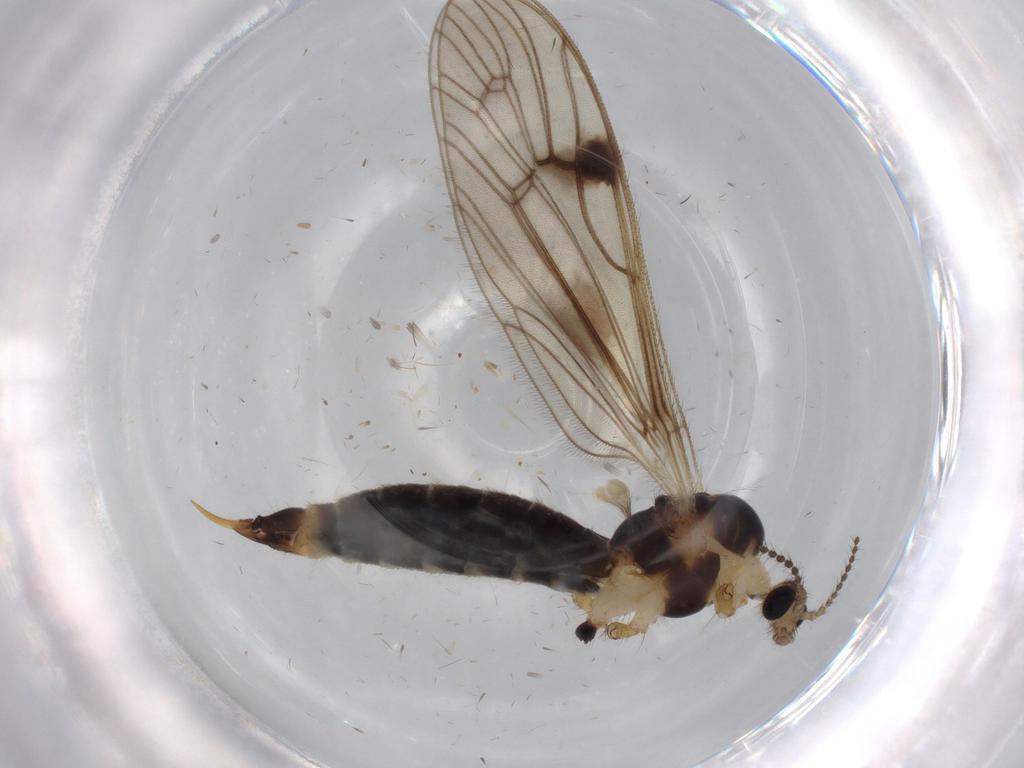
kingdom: Animalia
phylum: Arthropoda
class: Insecta
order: Diptera
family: Limoniidae
